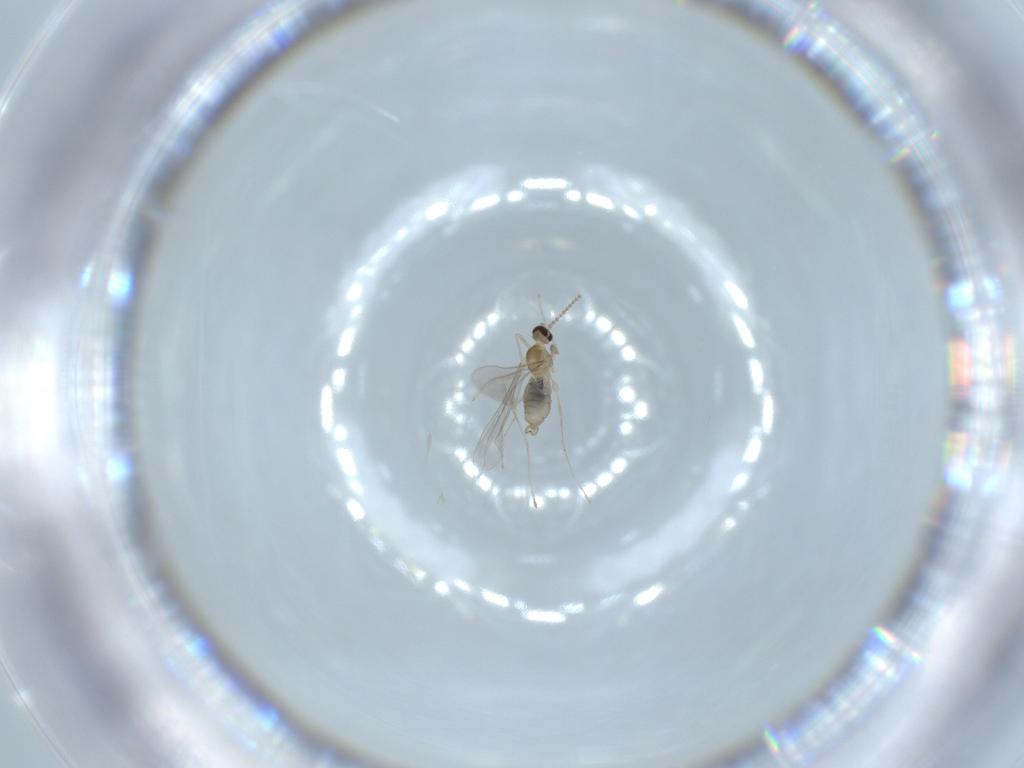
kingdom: Animalia
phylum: Arthropoda
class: Insecta
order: Diptera
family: Cecidomyiidae
